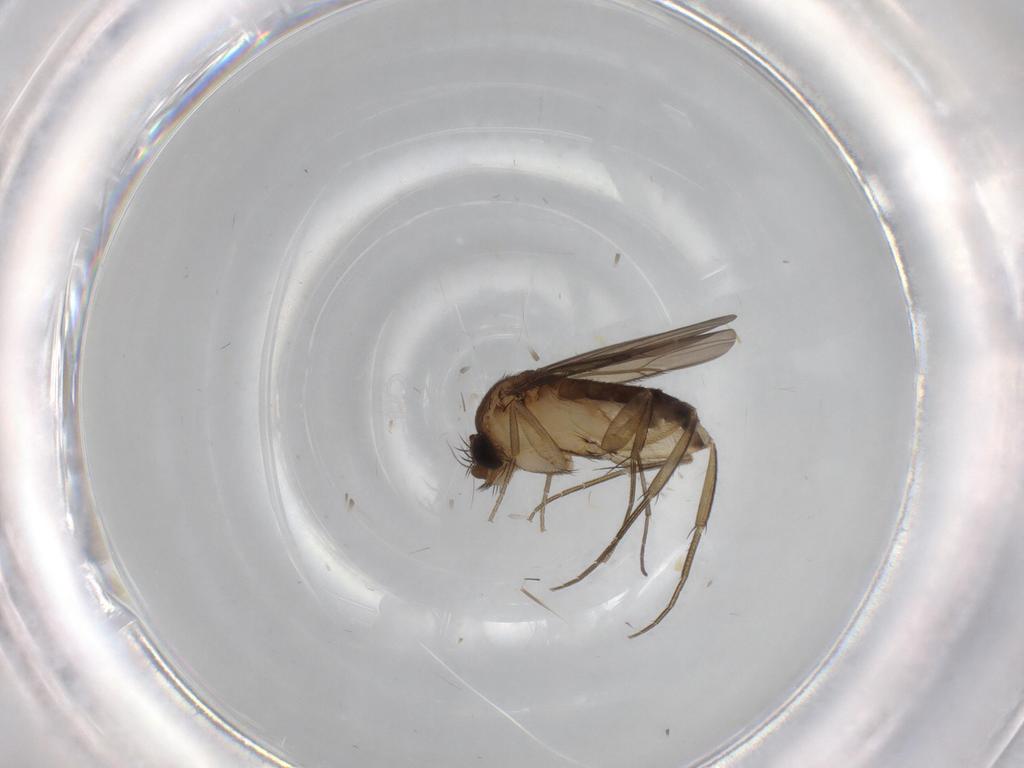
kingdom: Animalia
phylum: Arthropoda
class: Insecta
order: Diptera
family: Phoridae
